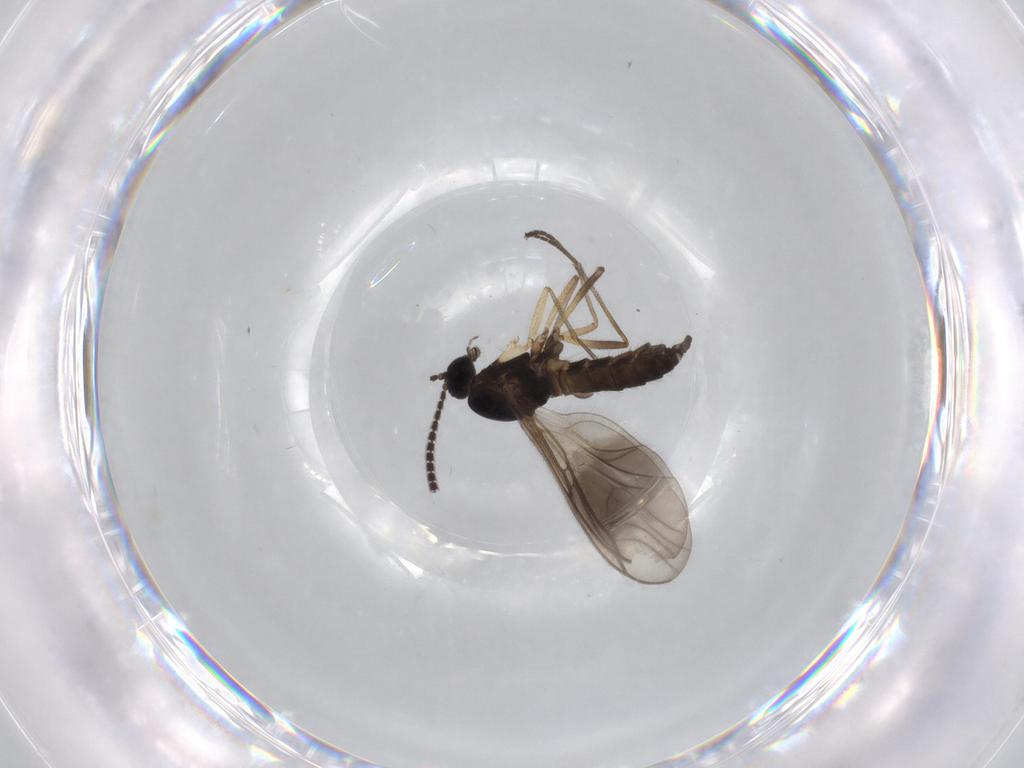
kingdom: Animalia
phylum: Arthropoda
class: Insecta
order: Diptera
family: Sciaridae
